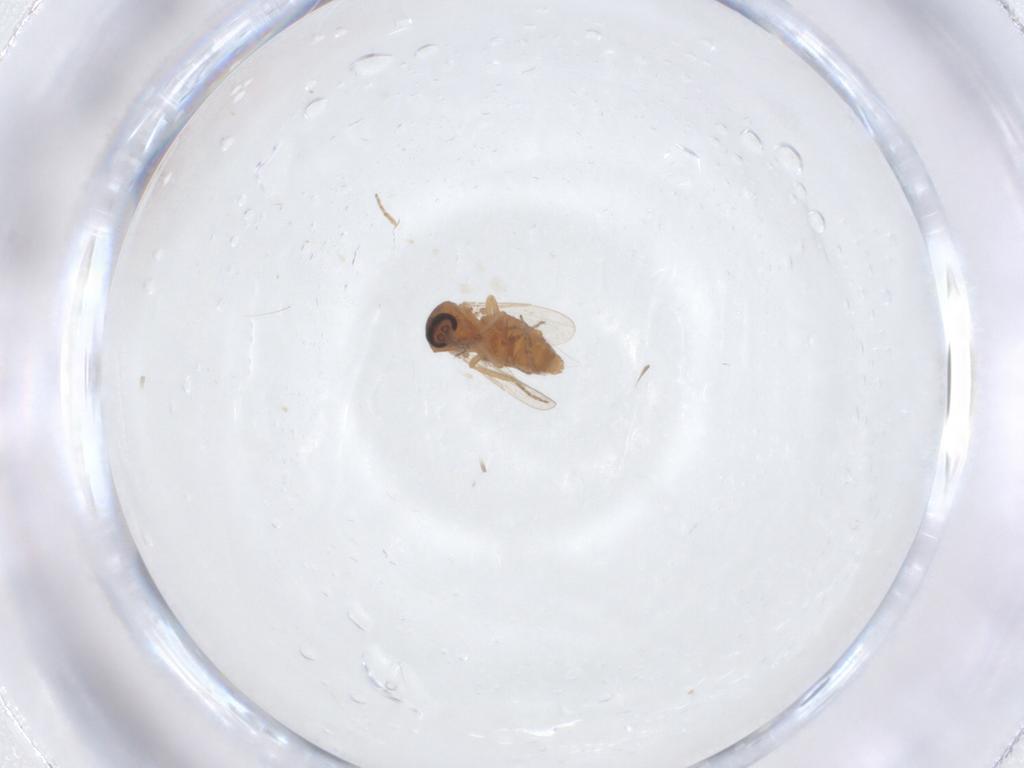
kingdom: Animalia
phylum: Arthropoda
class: Insecta
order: Diptera
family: Ceratopogonidae
